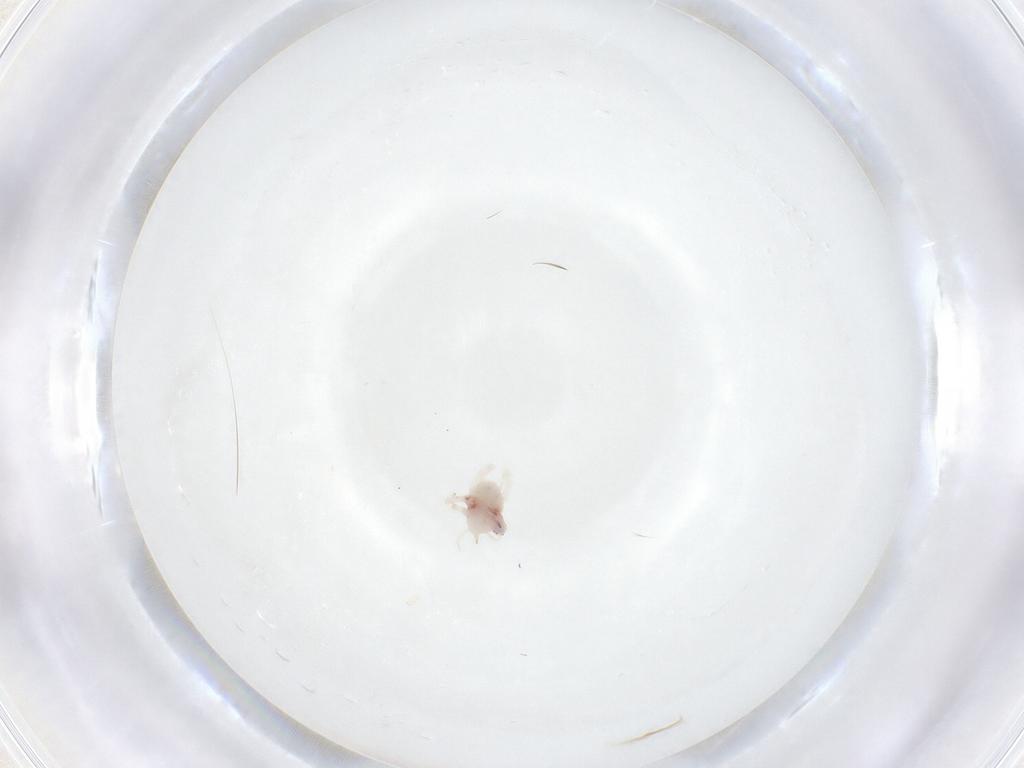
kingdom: Animalia
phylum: Arthropoda
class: Arachnida
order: Trombidiformes
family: Bdellidae
